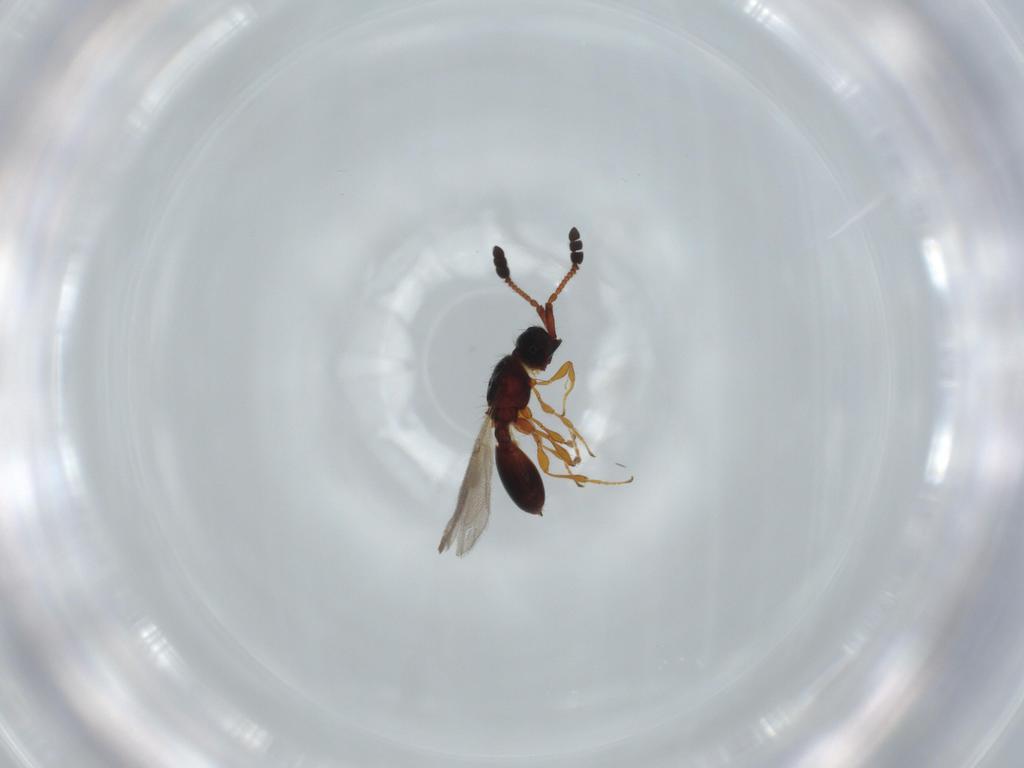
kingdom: Animalia
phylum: Arthropoda
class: Insecta
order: Hymenoptera
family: Diapriidae
